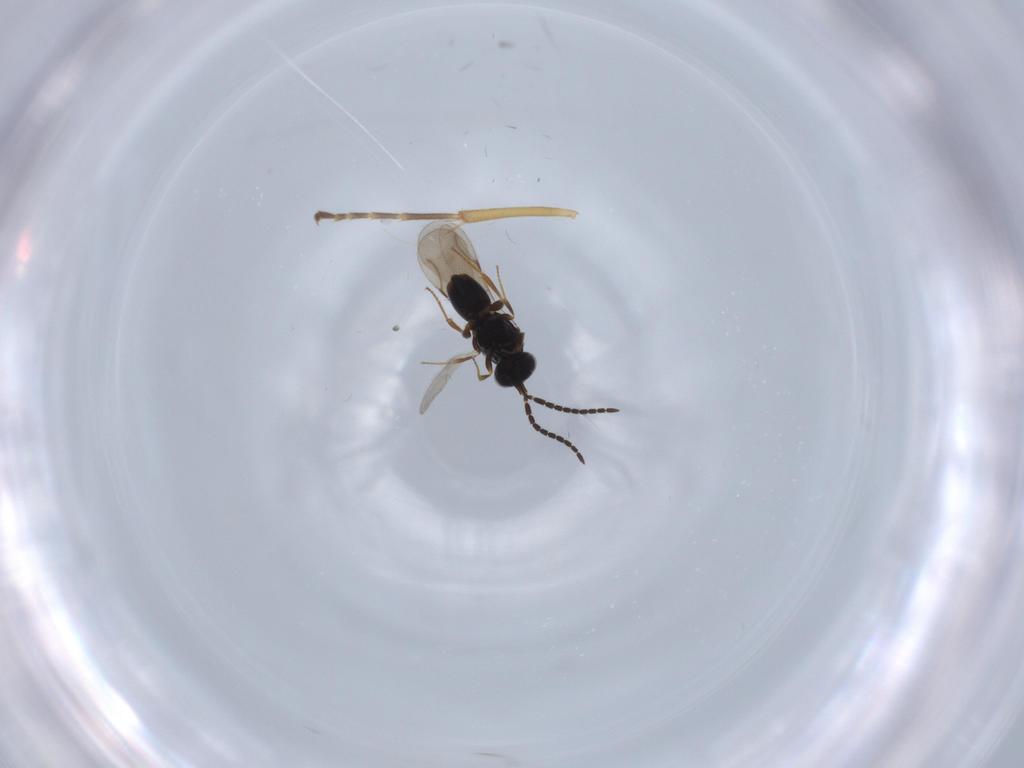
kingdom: Animalia
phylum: Arthropoda
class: Insecta
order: Hymenoptera
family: Ichneumonidae
